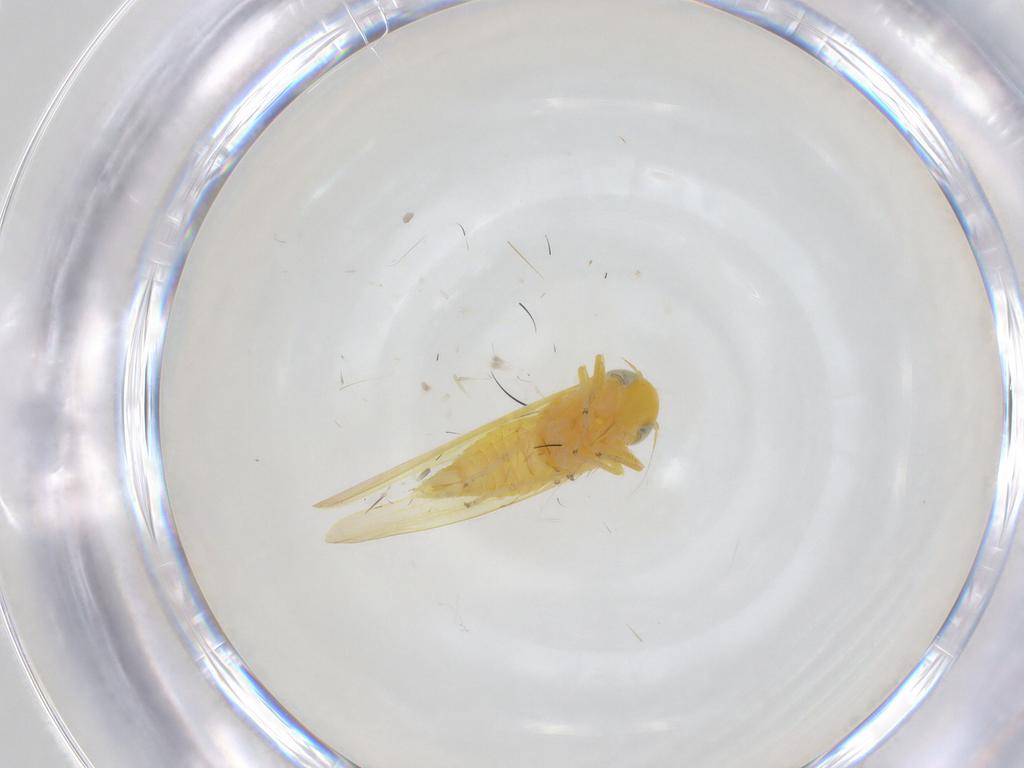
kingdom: Animalia
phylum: Arthropoda
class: Insecta
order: Hemiptera
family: Cicadellidae
